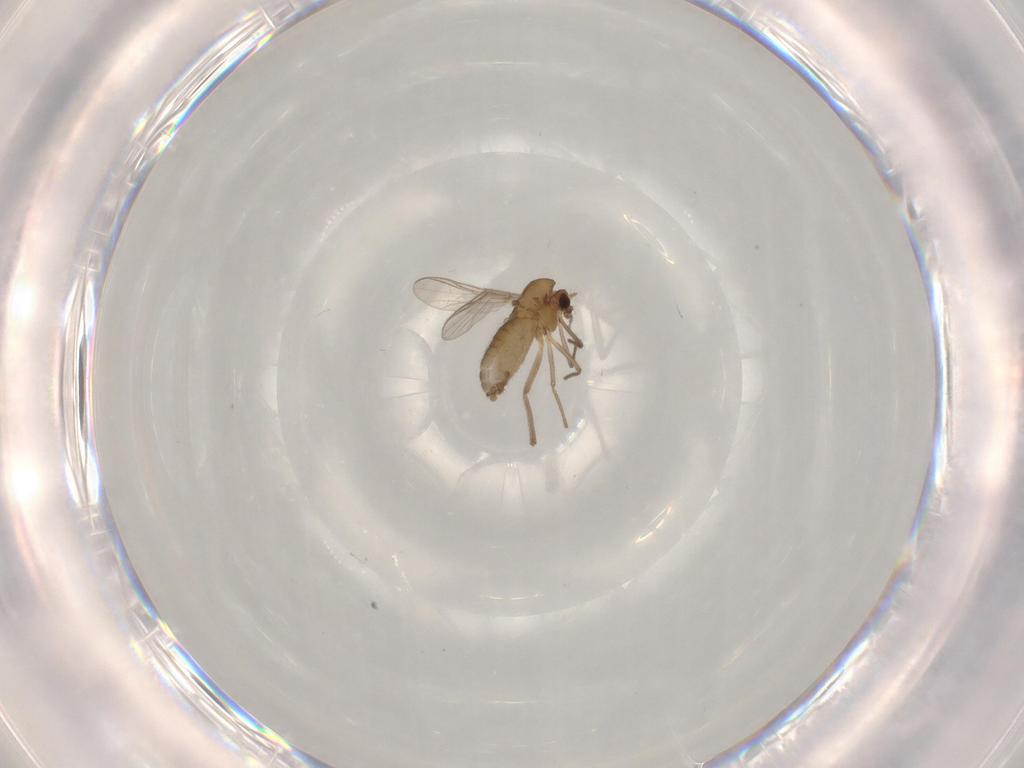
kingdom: Animalia
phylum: Arthropoda
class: Insecta
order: Diptera
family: Chironomidae
